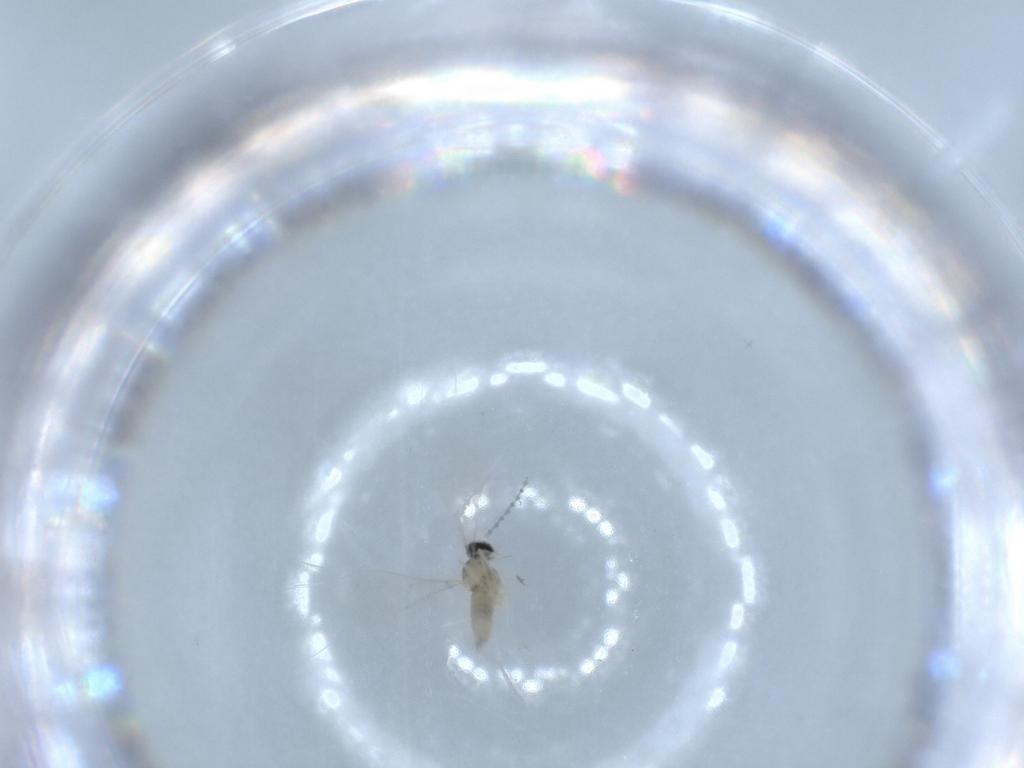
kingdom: Animalia
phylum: Arthropoda
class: Insecta
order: Diptera
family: Cecidomyiidae
